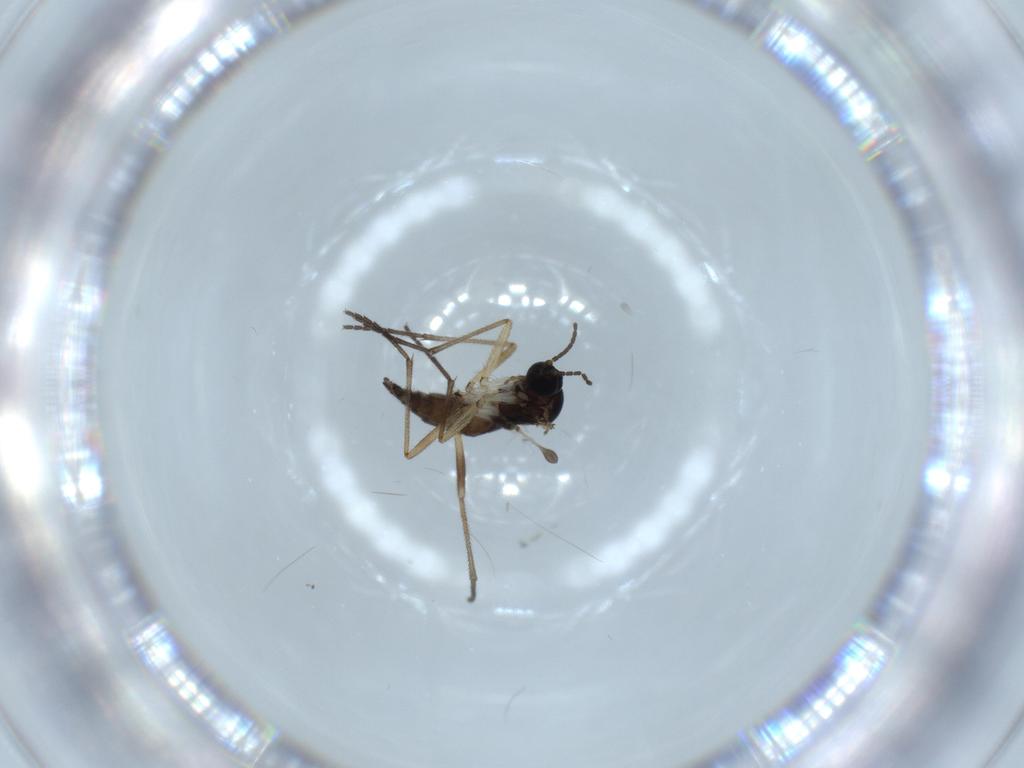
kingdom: Animalia
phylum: Arthropoda
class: Insecta
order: Diptera
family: Sciaridae
